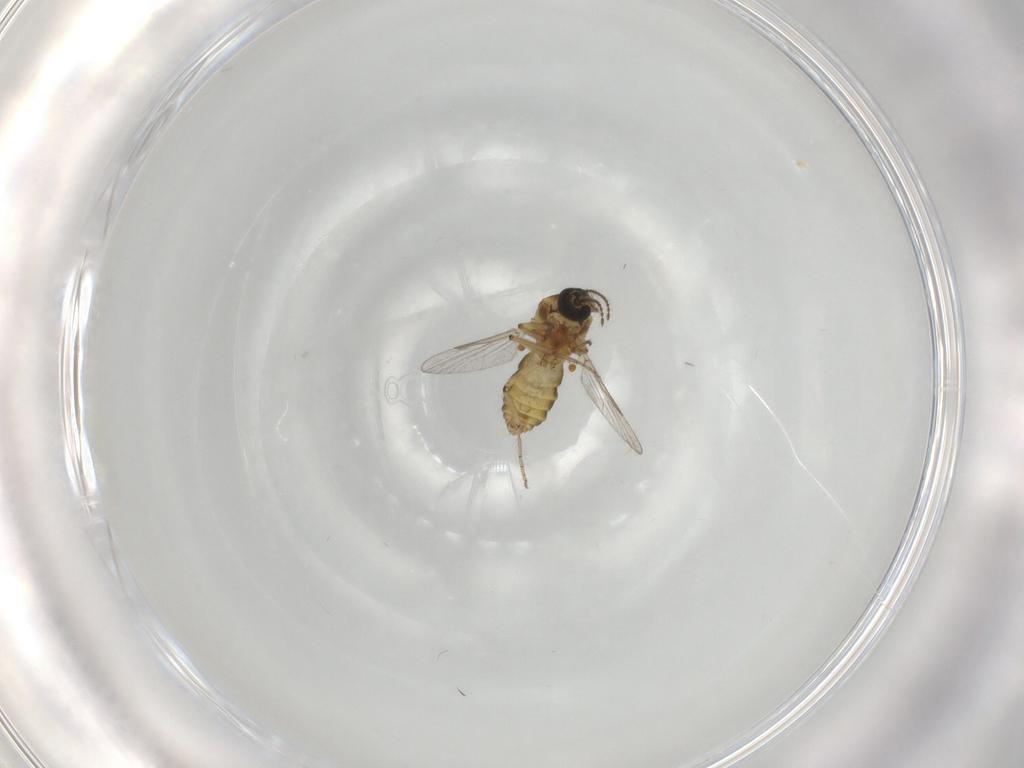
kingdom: Animalia
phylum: Arthropoda
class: Insecta
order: Diptera
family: Ceratopogonidae
